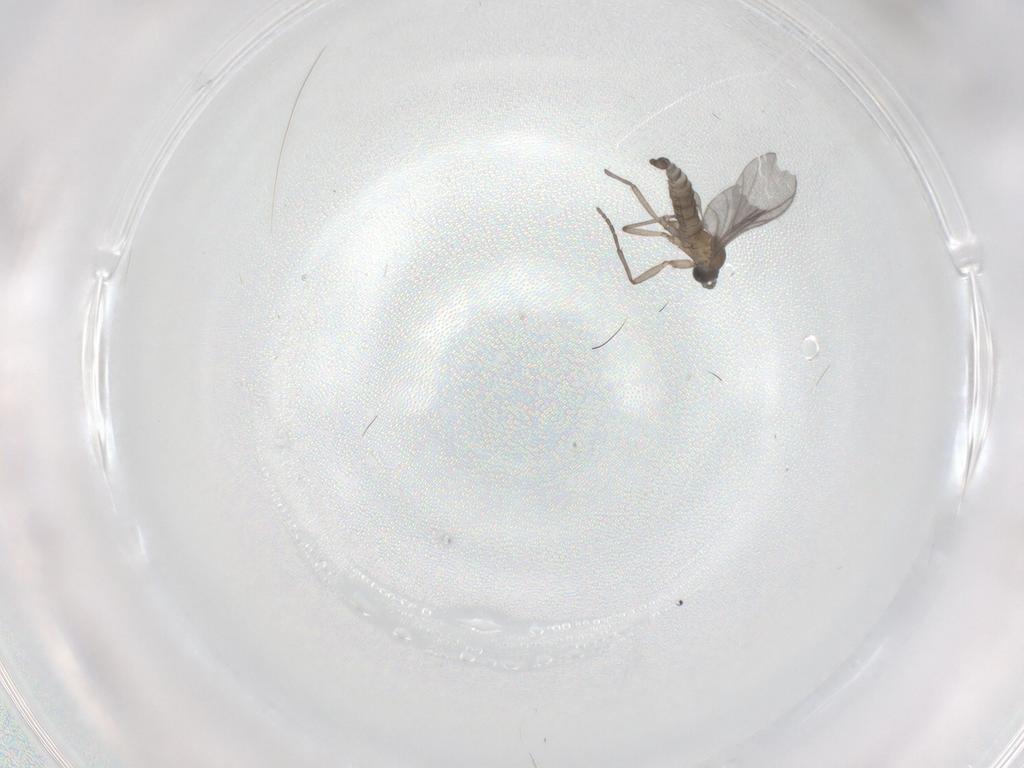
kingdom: Animalia
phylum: Arthropoda
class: Insecta
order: Diptera
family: Sciaridae
